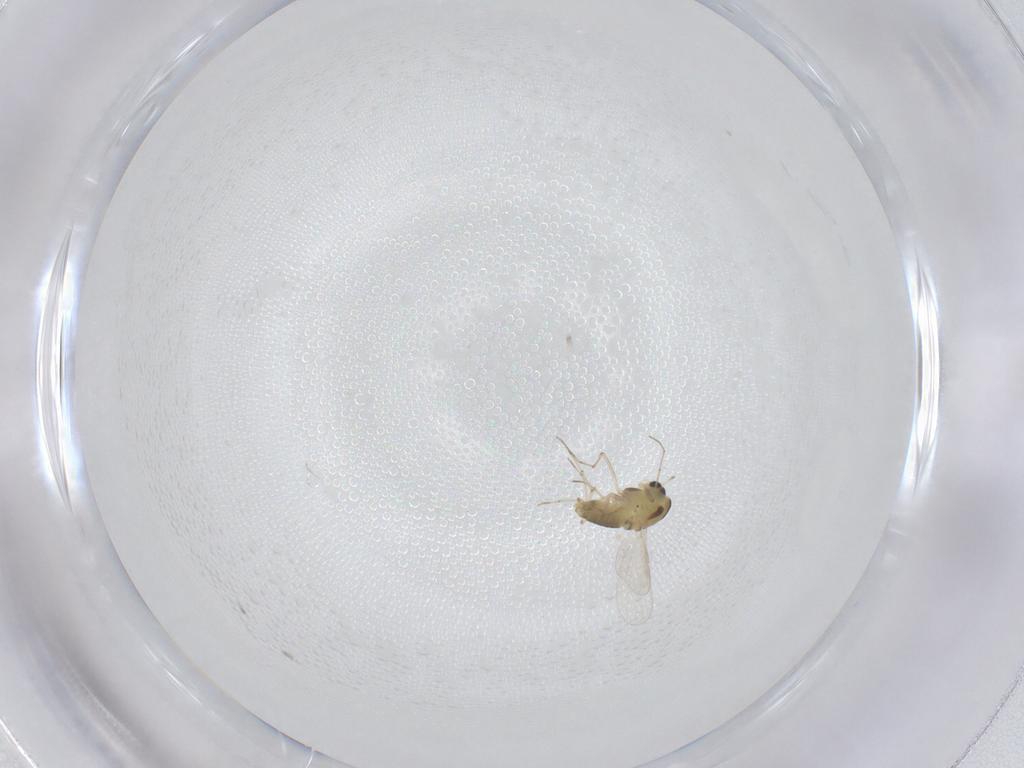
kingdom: Animalia
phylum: Arthropoda
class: Insecta
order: Diptera
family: Chironomidae
